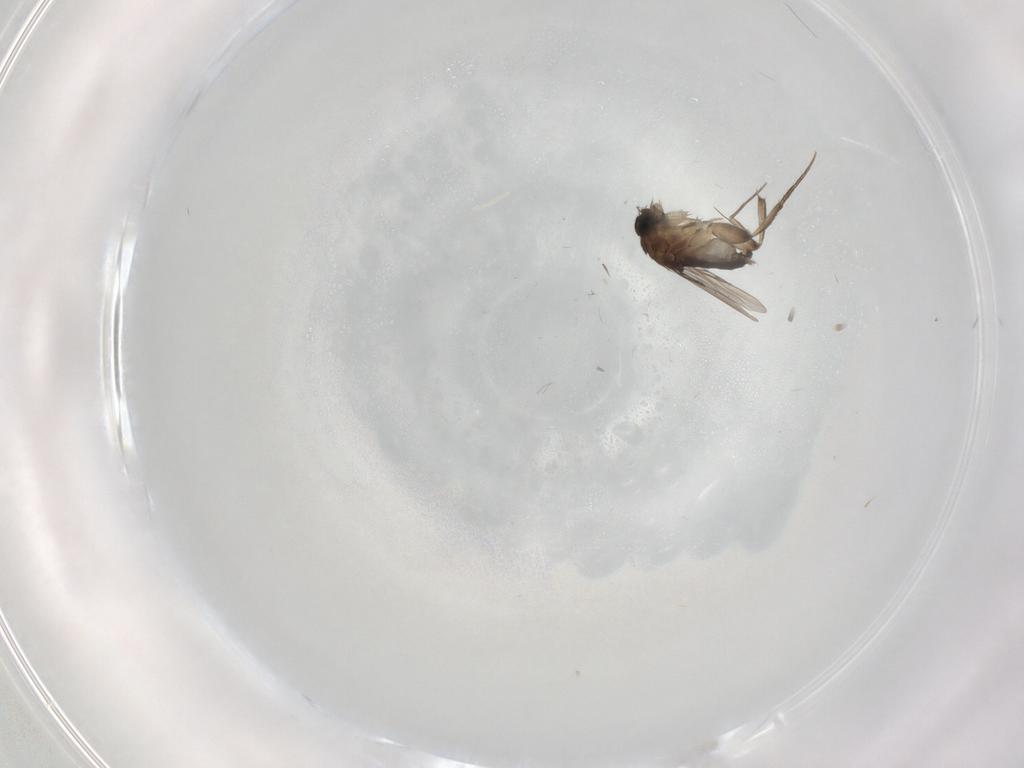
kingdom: Animalia
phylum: Arthropoda
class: Insecta
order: Diptera
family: Phoridae
